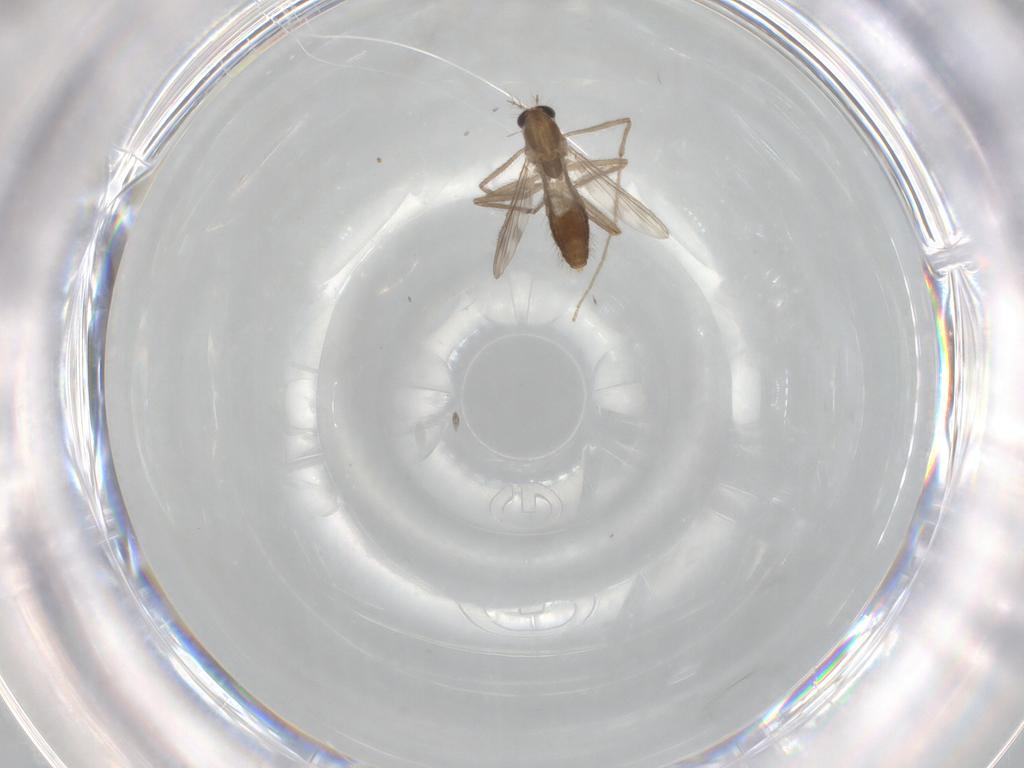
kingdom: Animalia
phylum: Arthropoda
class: Insecta
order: Diptera
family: Chironomidae
